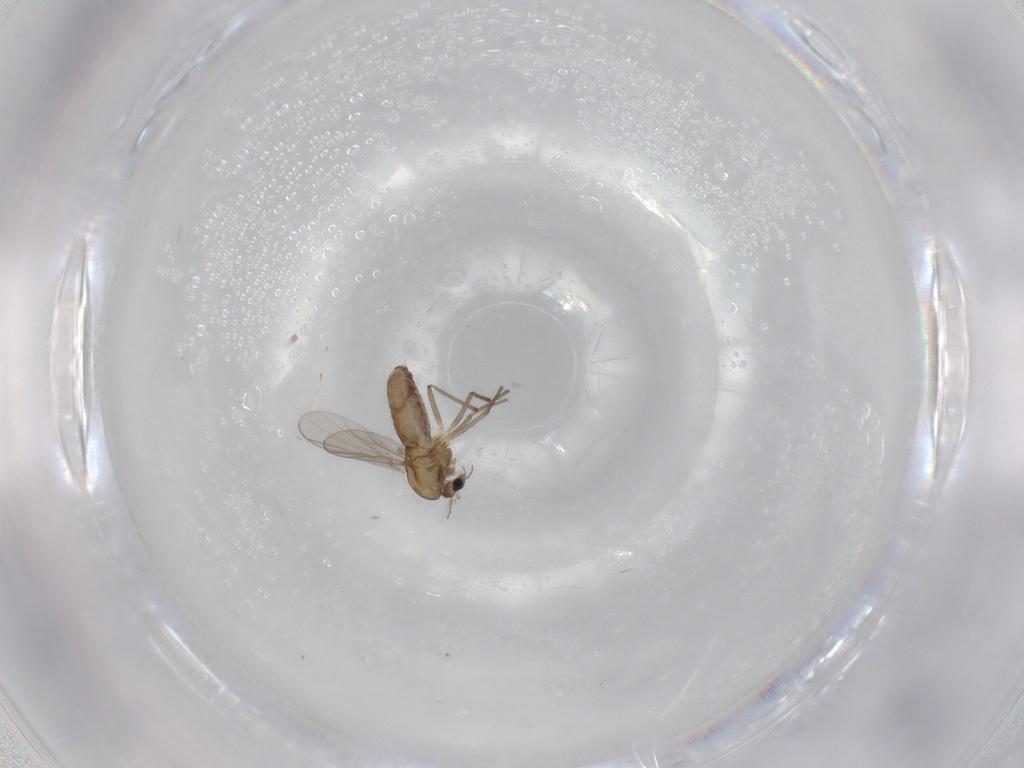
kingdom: Animalia
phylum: Arthropoda
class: Insecta
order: Diptera
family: Chironomidae
